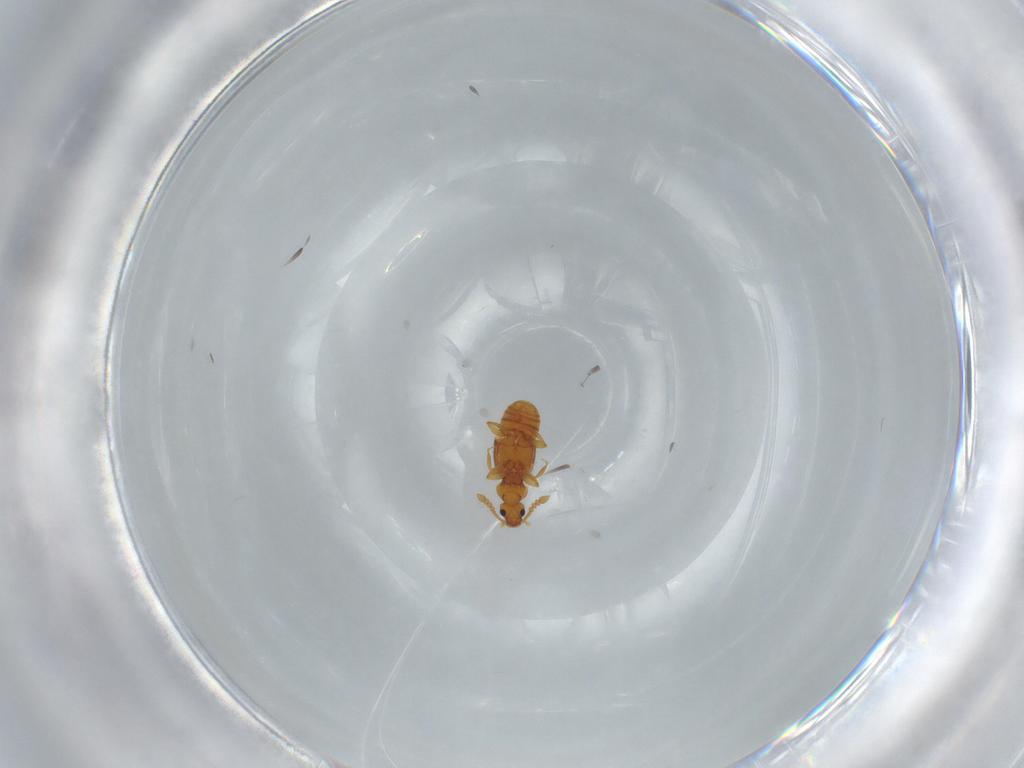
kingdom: Animalia
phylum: Arthropoda
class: Insecta
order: Coleoptera
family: Staphylinidae
